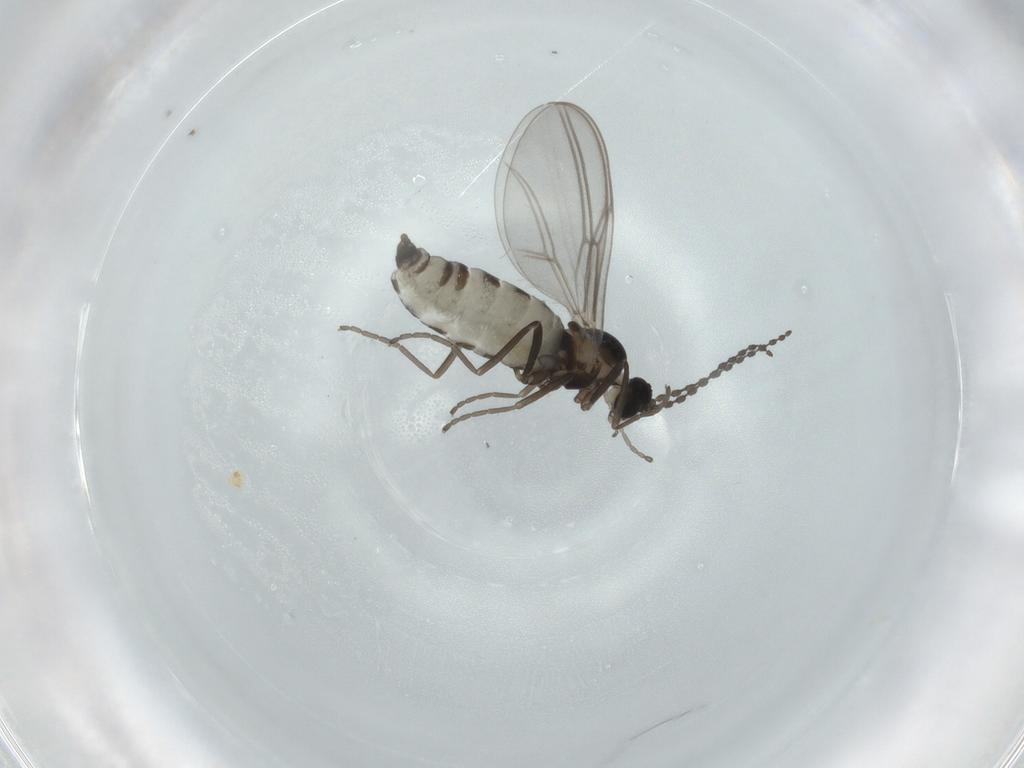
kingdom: Animalia
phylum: Arthropoda
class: Insecta
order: Diptera
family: Cecidomyiidae
